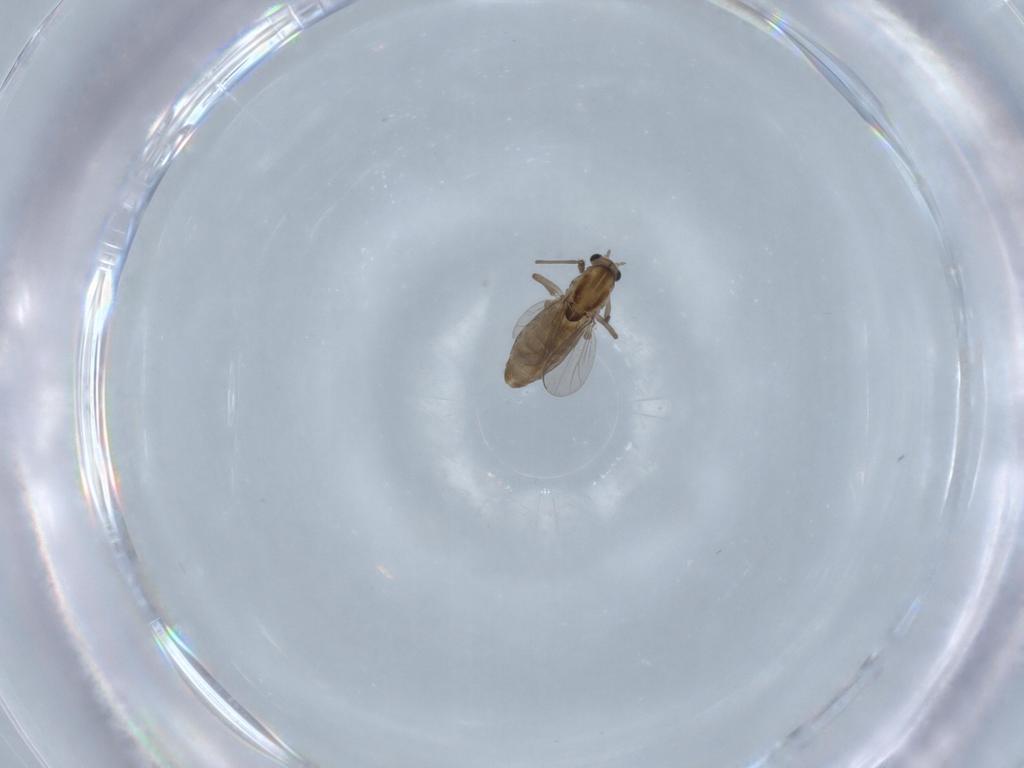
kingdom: Animalia
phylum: Arthropoda
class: Insecta
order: Diptera
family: Chironomidae
